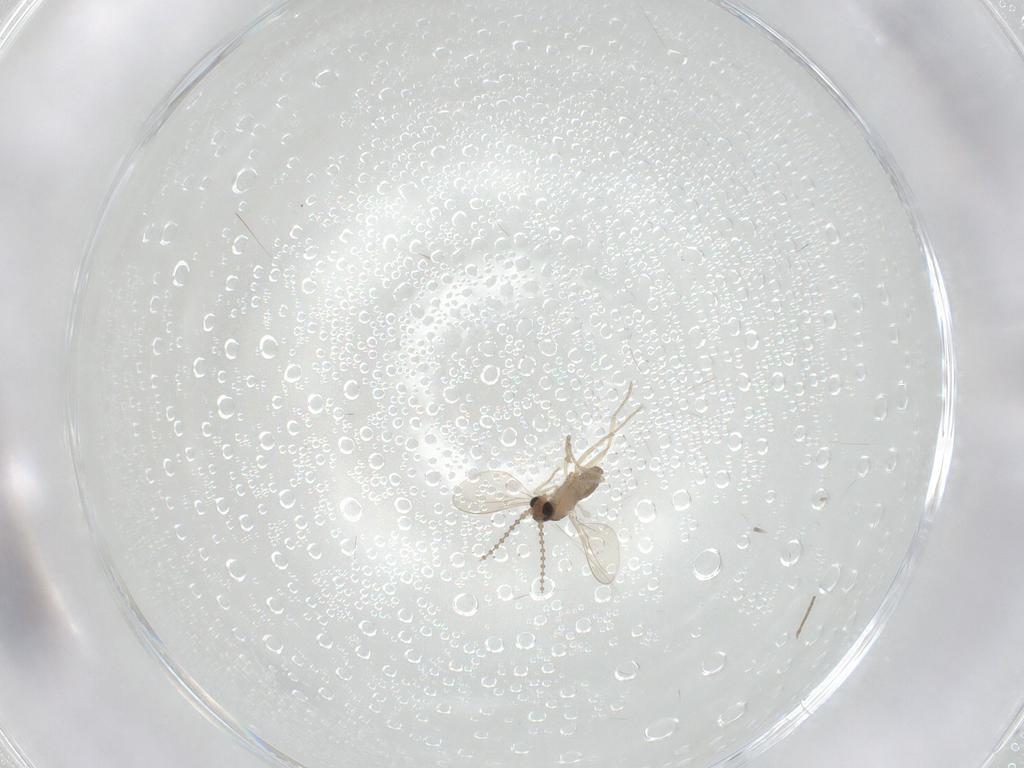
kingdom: Animalia
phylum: Arthropoda
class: Insecta
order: Diptera
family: Cecidomyiidae
